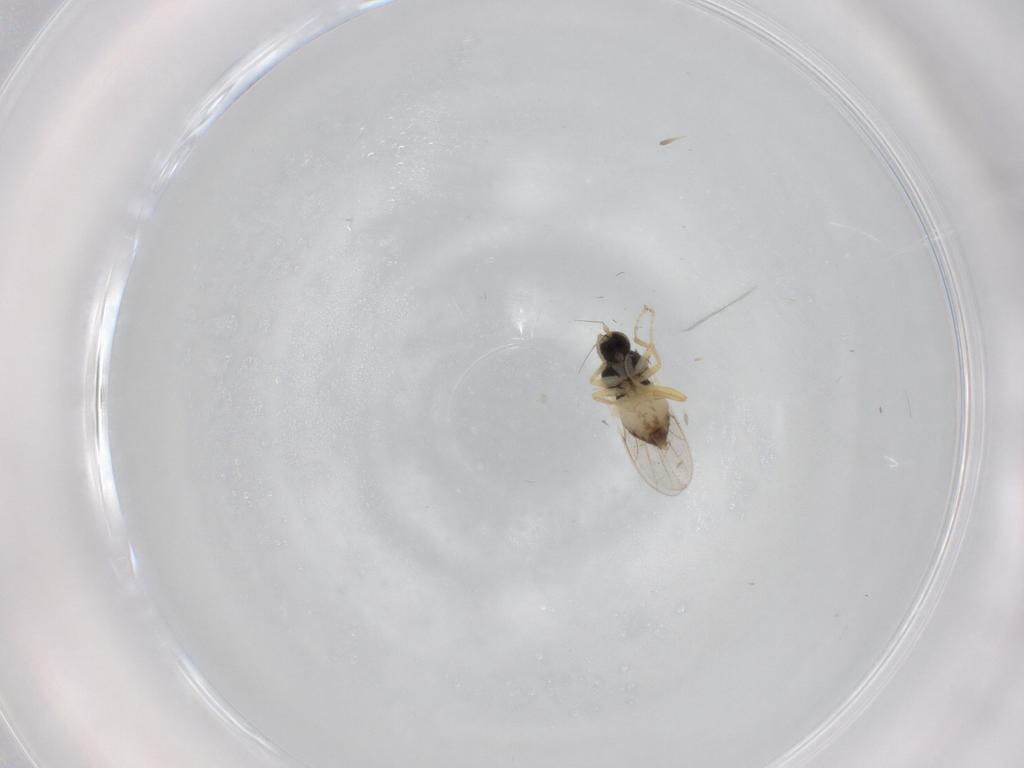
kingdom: Animalia
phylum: Arthropoda
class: Insecta
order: Diptera
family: Hybotidae
